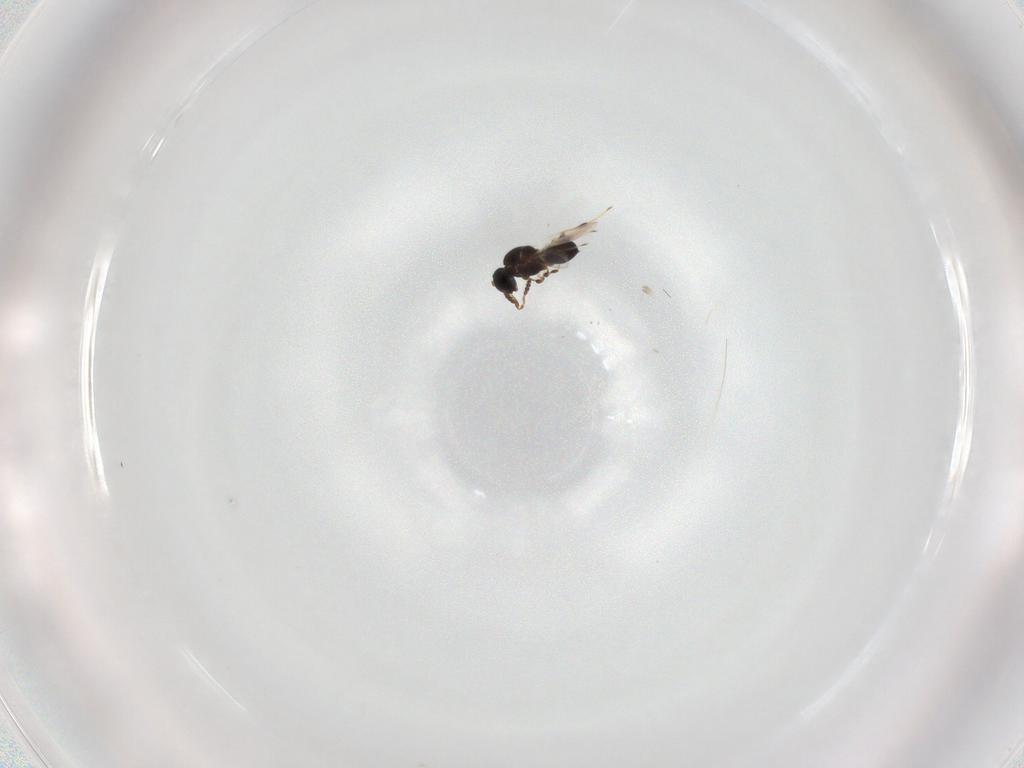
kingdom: Animalia
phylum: Arthropoda
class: Insecta
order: Hymenoptera
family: Platygastridae
